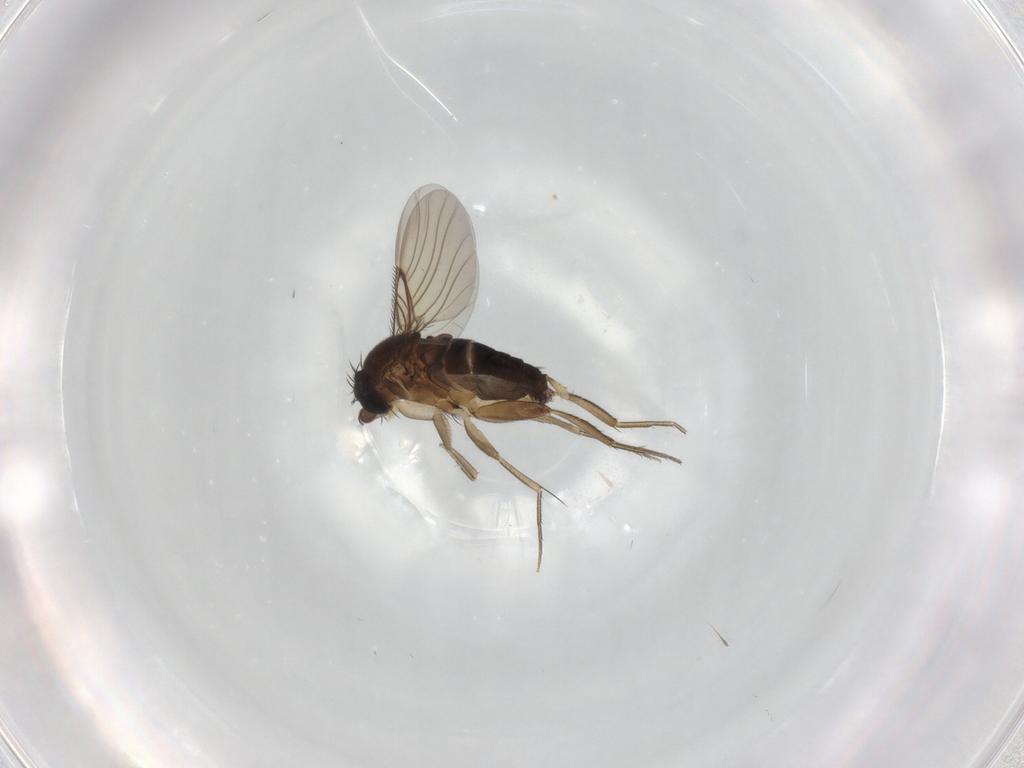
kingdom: Animalia
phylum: Arthropoda
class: Insecta
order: Diptera
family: Phoridae
